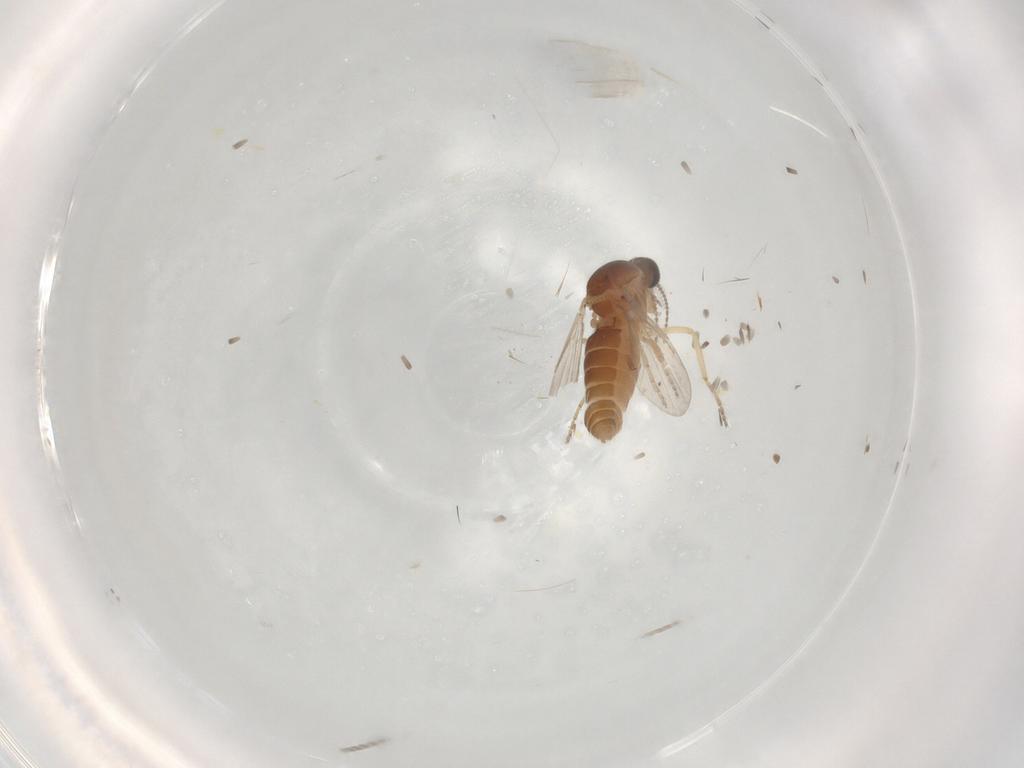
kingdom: Animalia
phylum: Arthropoda
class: Insecta
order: Diptera
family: Ceratopogonidae
